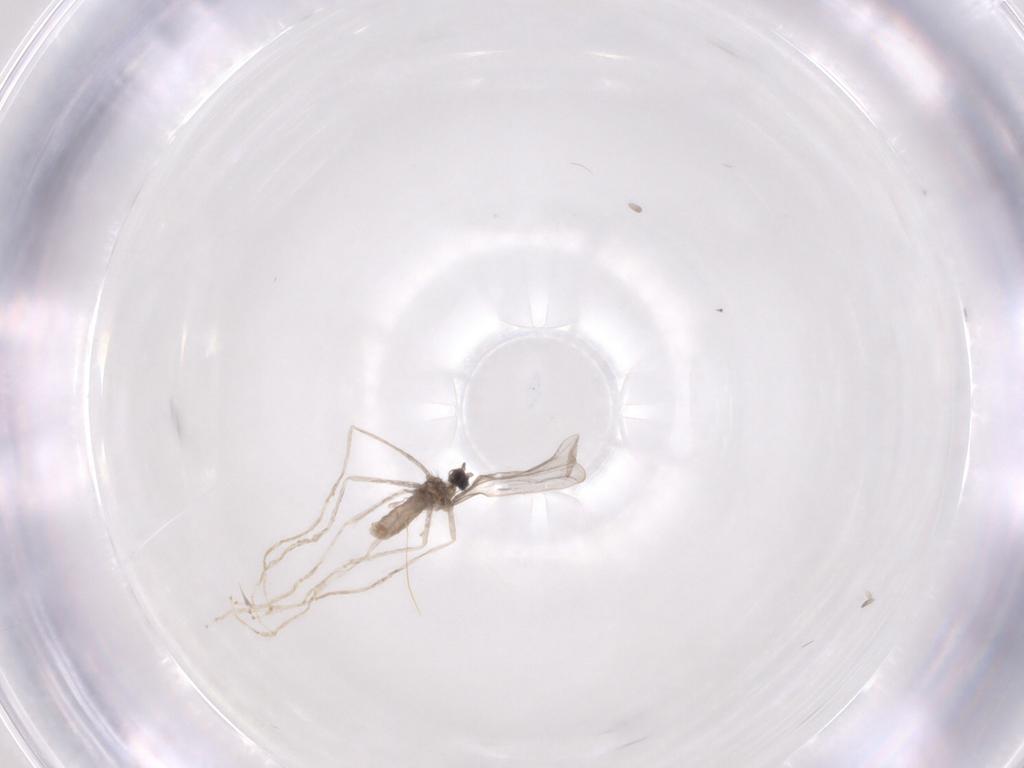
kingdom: Animalia
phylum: Arthropoda
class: Insecta
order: Diptera
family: Cecidomyiidae
